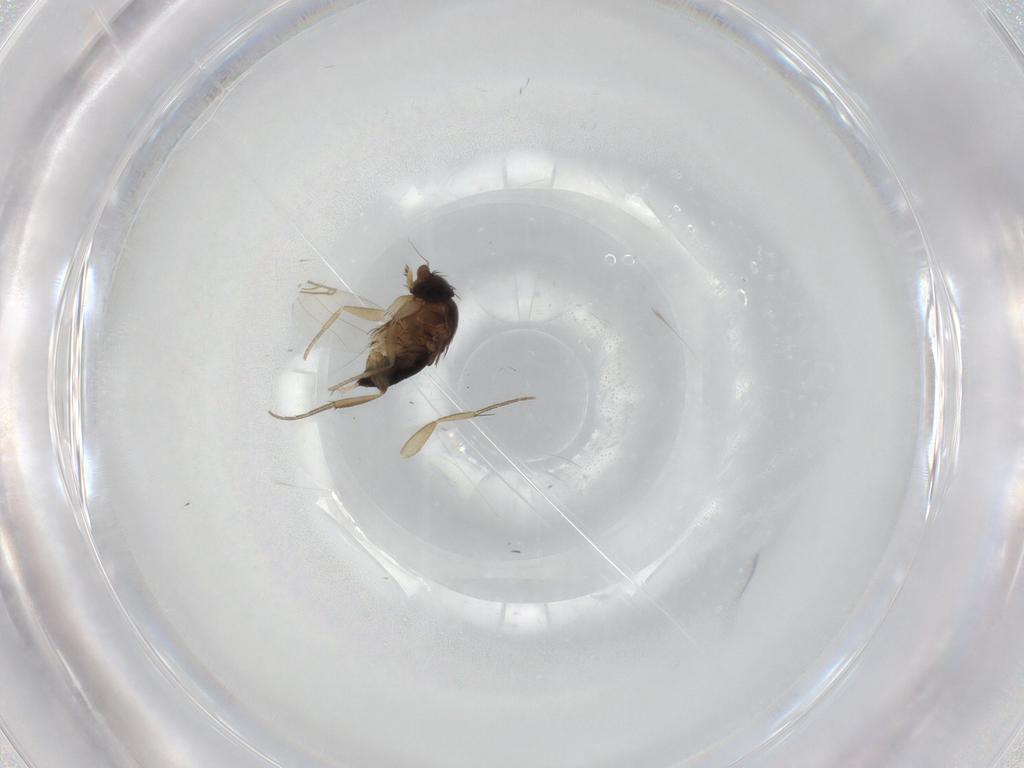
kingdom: Animalia
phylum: Arthropoda
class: Insecta
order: Diptera
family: Phoridae
